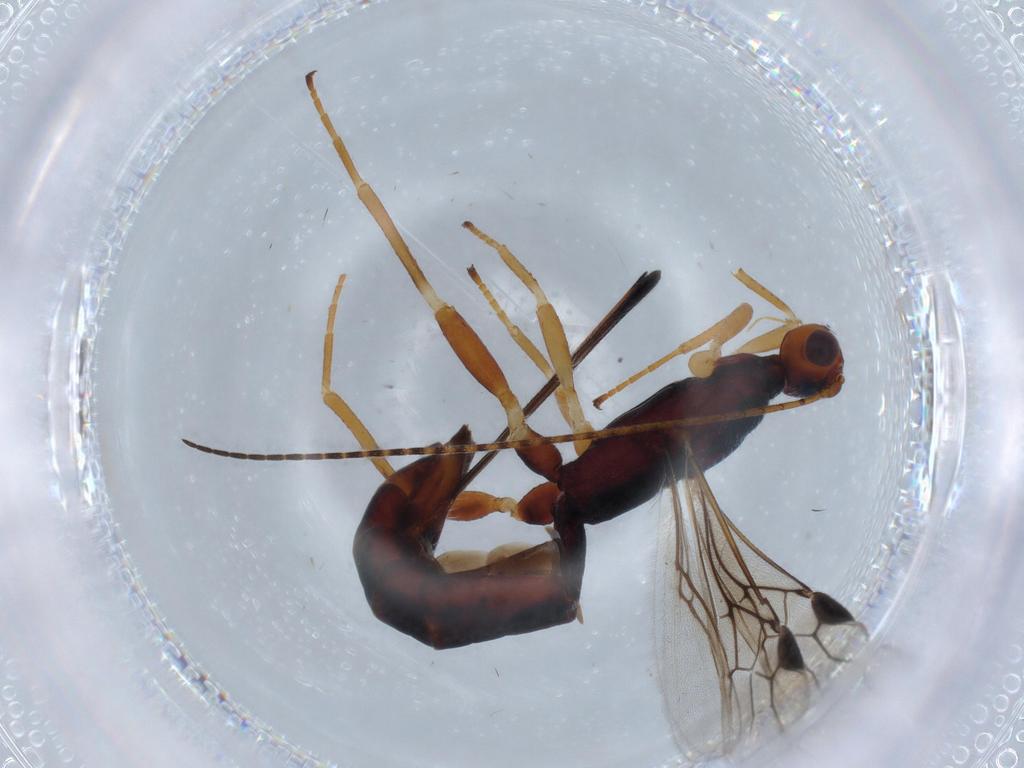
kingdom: Animalia
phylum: Arthropoda
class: Insecta
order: Hymenoptera
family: Braconidae
